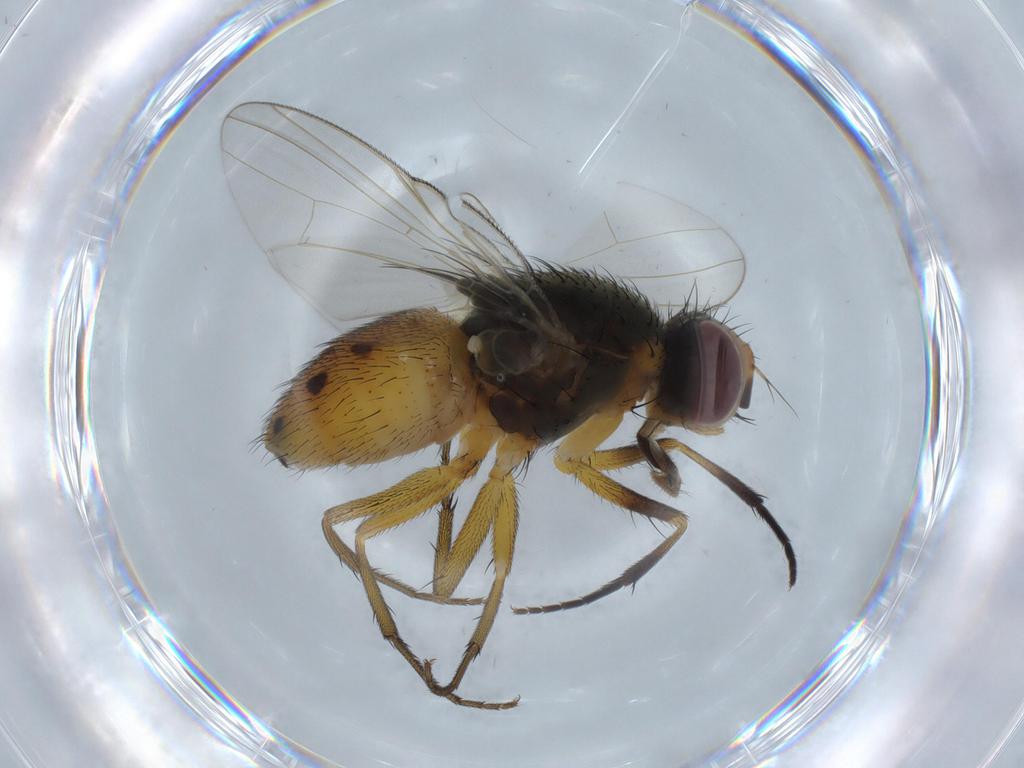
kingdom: Animalia
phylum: Arthropoda
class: Insecta
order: Diptera
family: Muscidae
